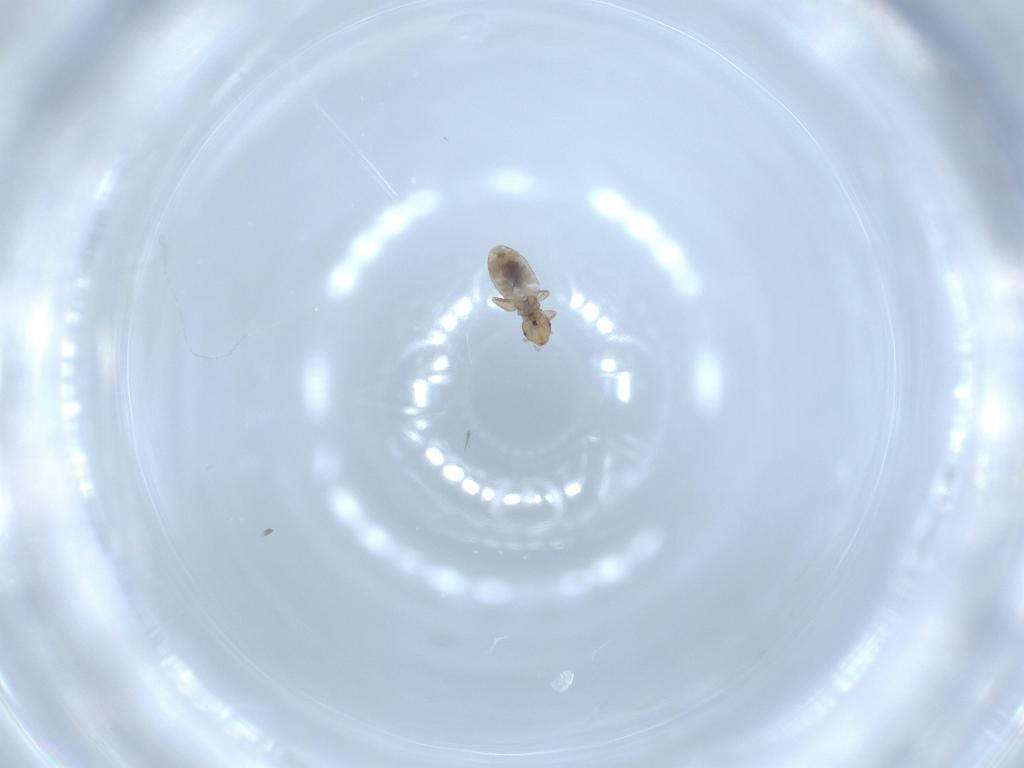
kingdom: Animalia
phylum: Arthropoda
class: Insecta
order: Psocodea
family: Liposcelididae
